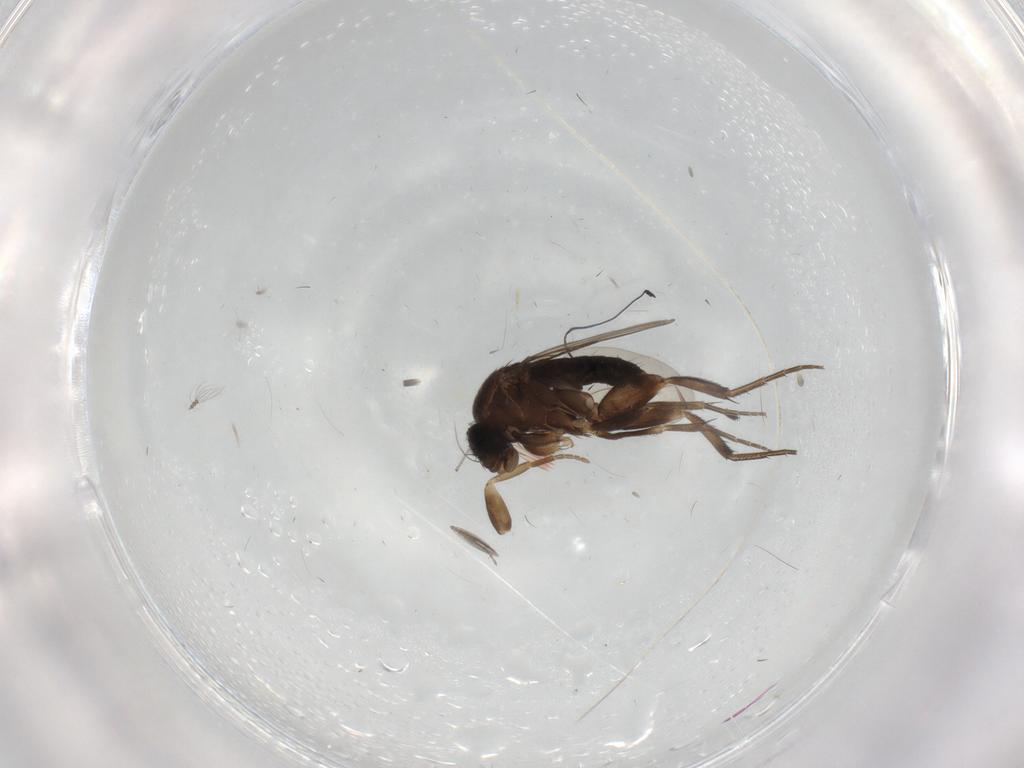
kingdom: Animalia
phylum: Arthropoda
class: Insecta
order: Diptera
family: Phoridae
